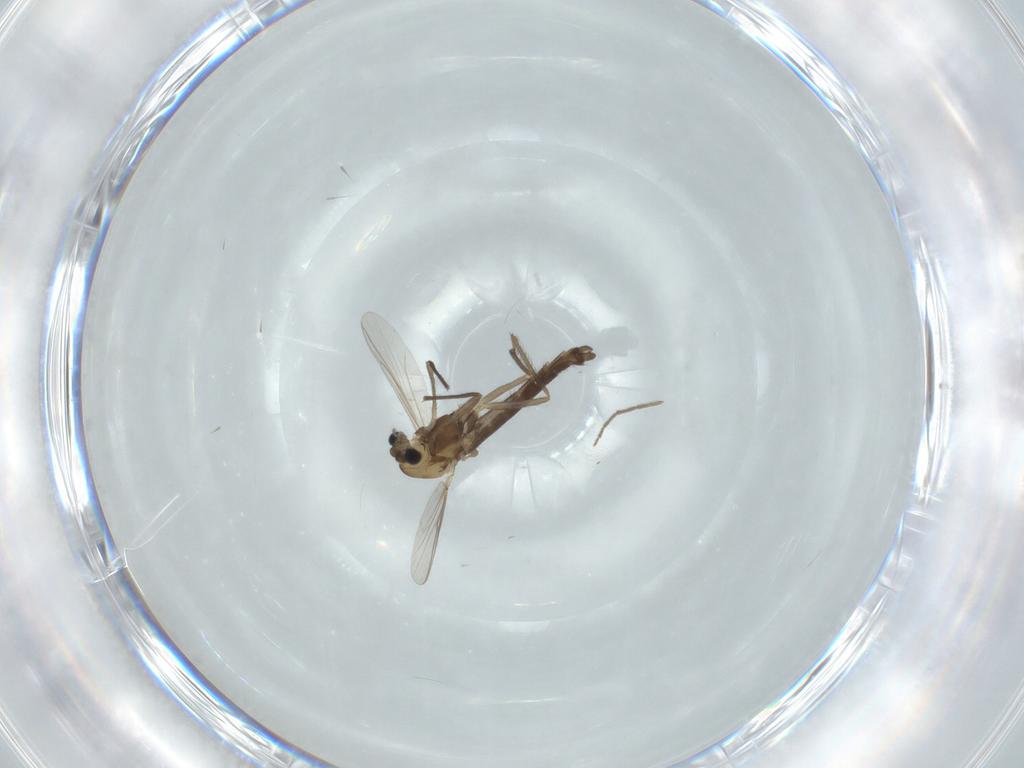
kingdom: Animalia
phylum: Arthropoda
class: Insecta
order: Diptera
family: Chironomidae
